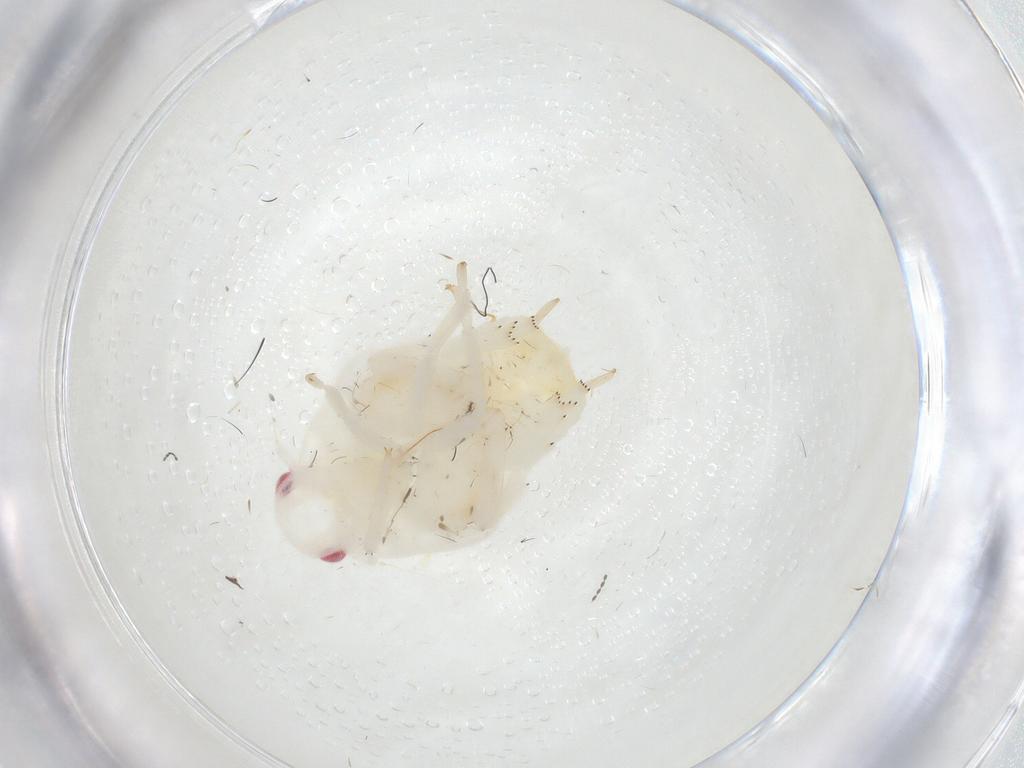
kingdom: Animalia
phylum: Arthropoda
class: Insecta
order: Hemiptera
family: Flatidae
